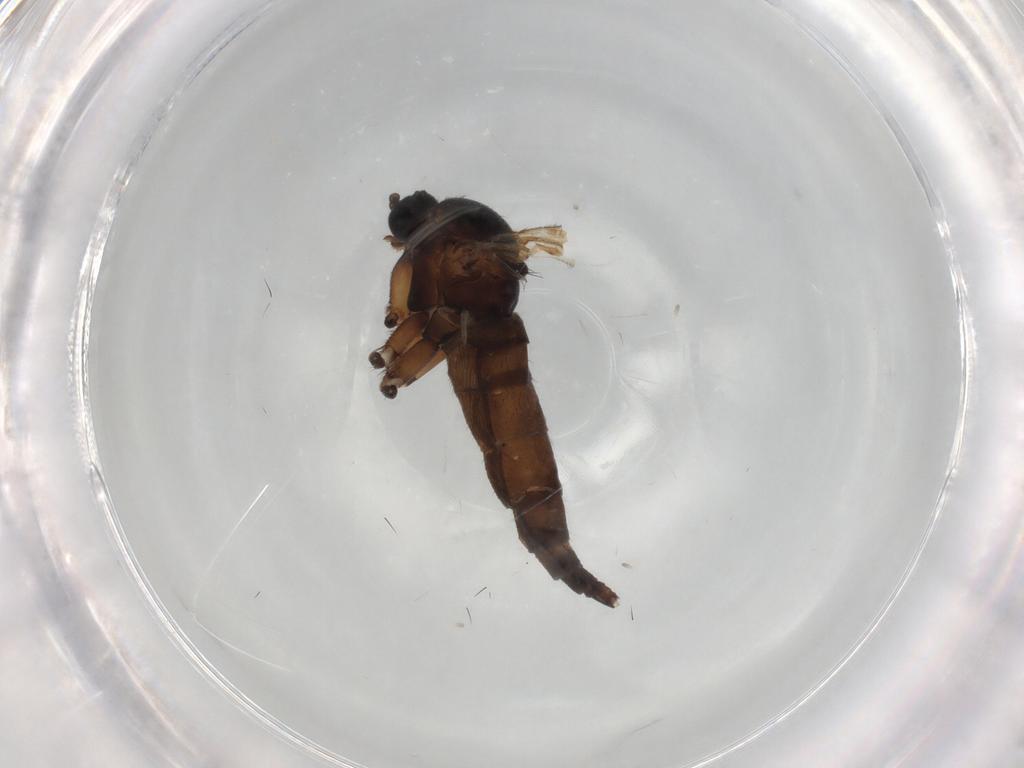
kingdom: Animalia
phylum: Arthropoda
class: Insecta
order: Diptera
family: Sciaridae
